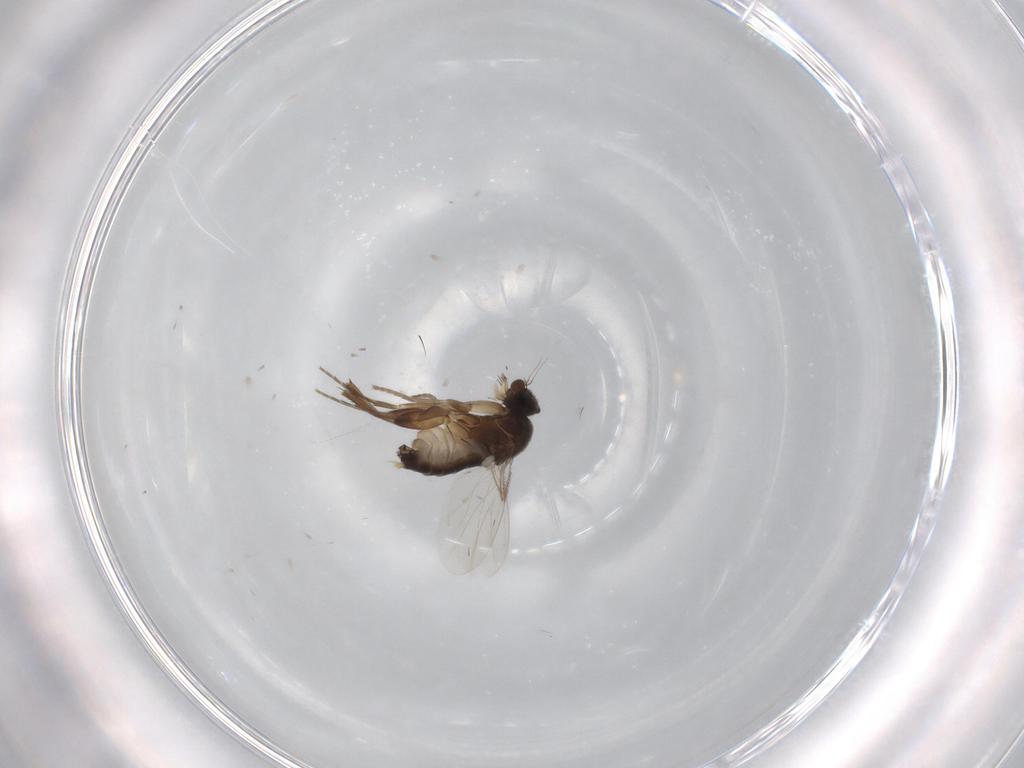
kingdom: Animalia
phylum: Arthropoda
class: Insecta
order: Diptera
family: Phoridae
